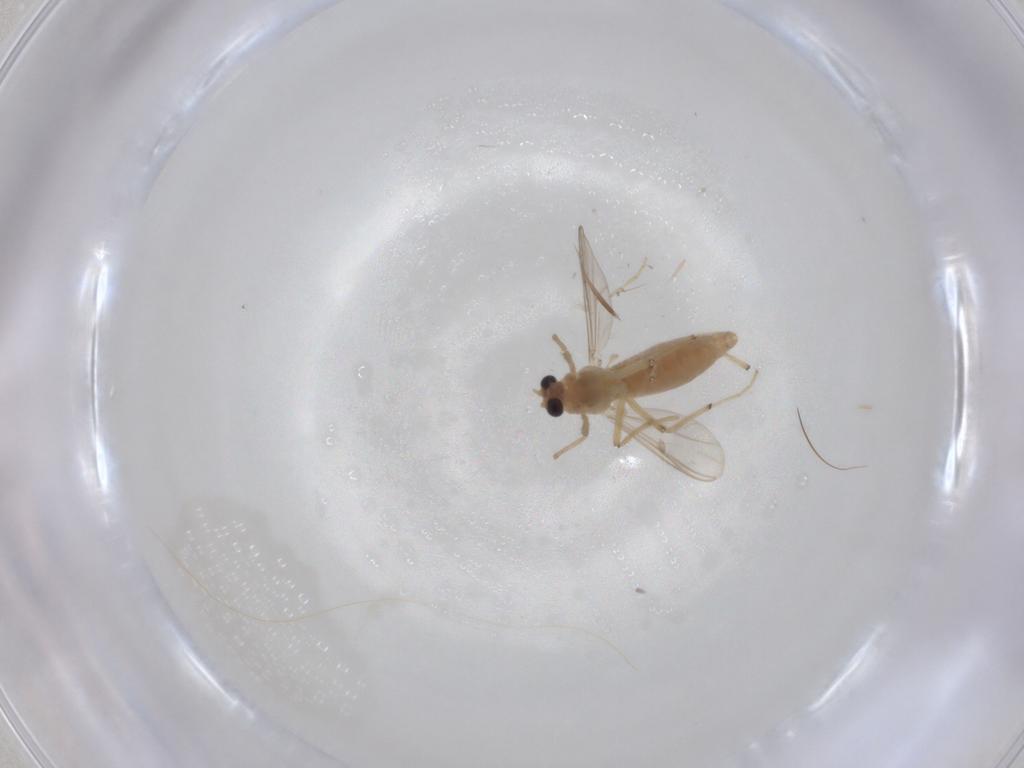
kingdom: Animalia
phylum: Arthropoda
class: Insecta
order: Diptera
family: Chironomidae
